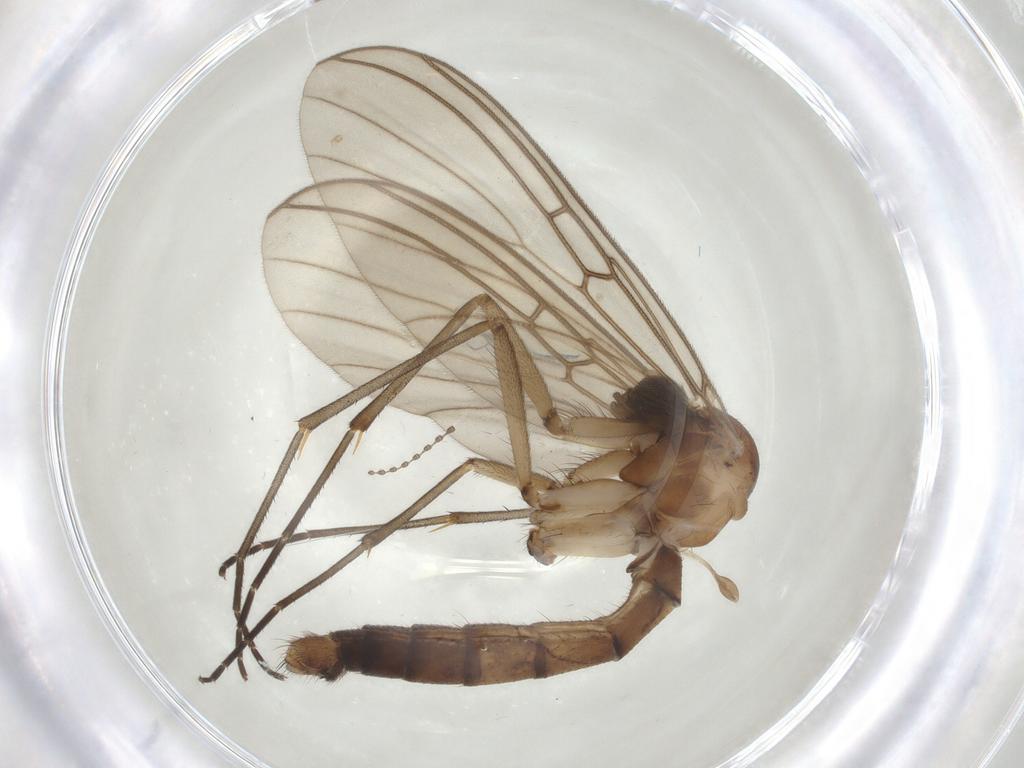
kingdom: Animalia
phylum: Arthropoda
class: Insecta
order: Diptera
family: Mycetophilidae
